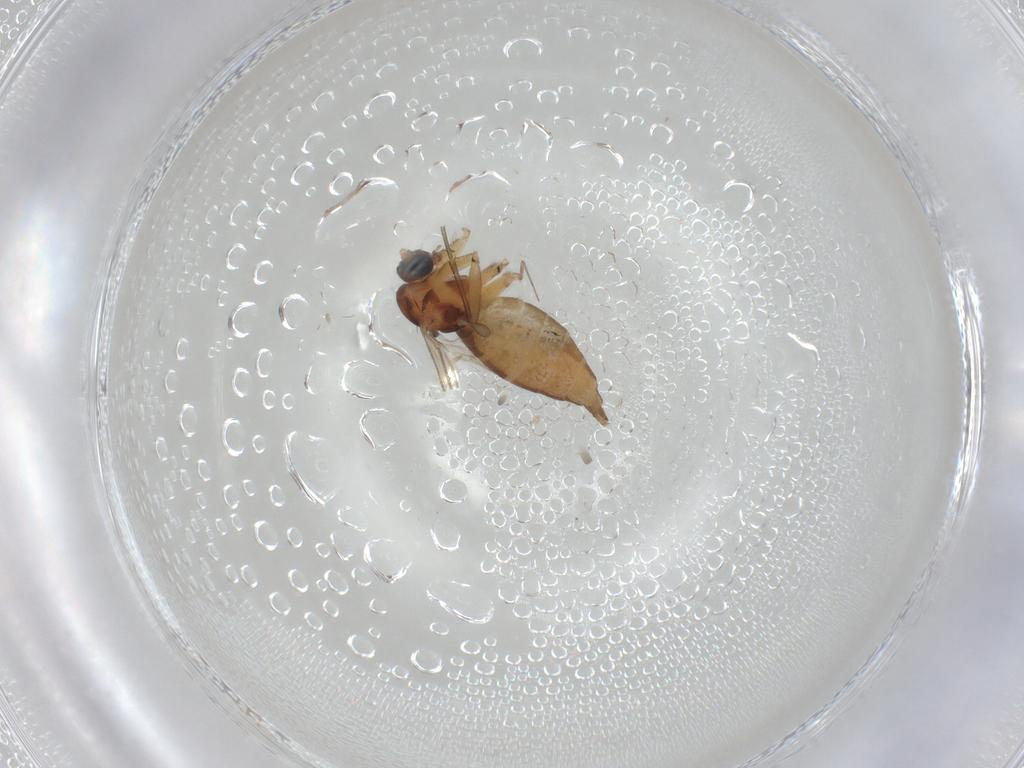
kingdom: Animalia
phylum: Arthropoda
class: Insecta
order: Diptera
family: Sciaridae
